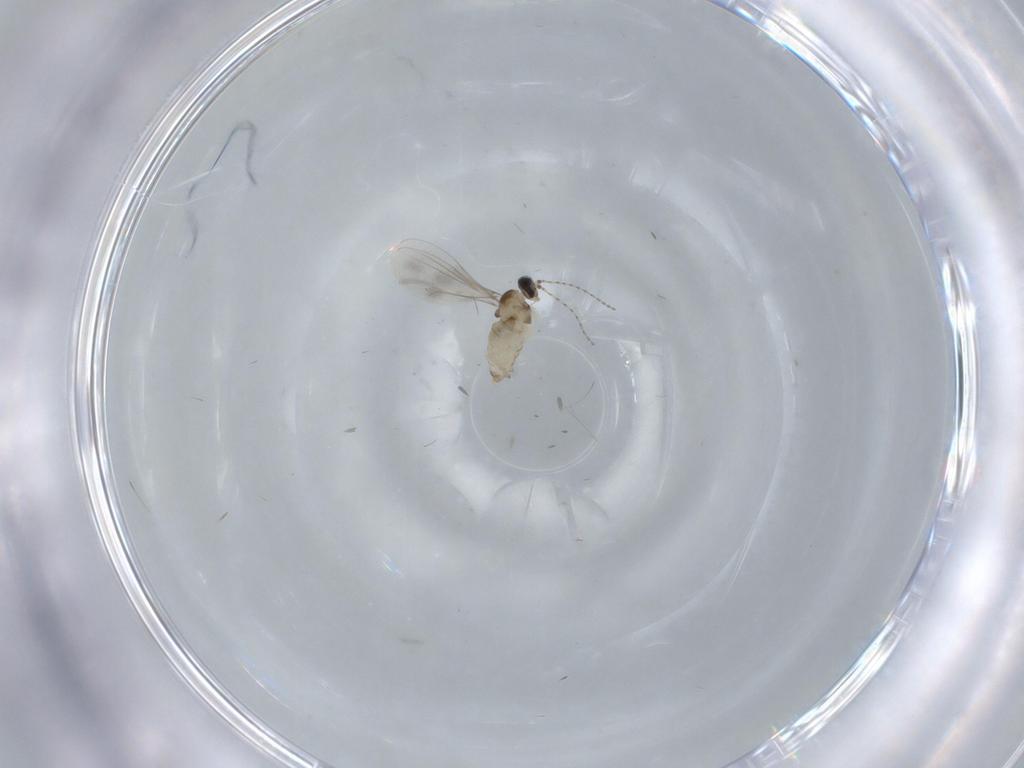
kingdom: Animalia
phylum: Arthropoda
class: Insecta
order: Diptera
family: Cecidomyiidae
